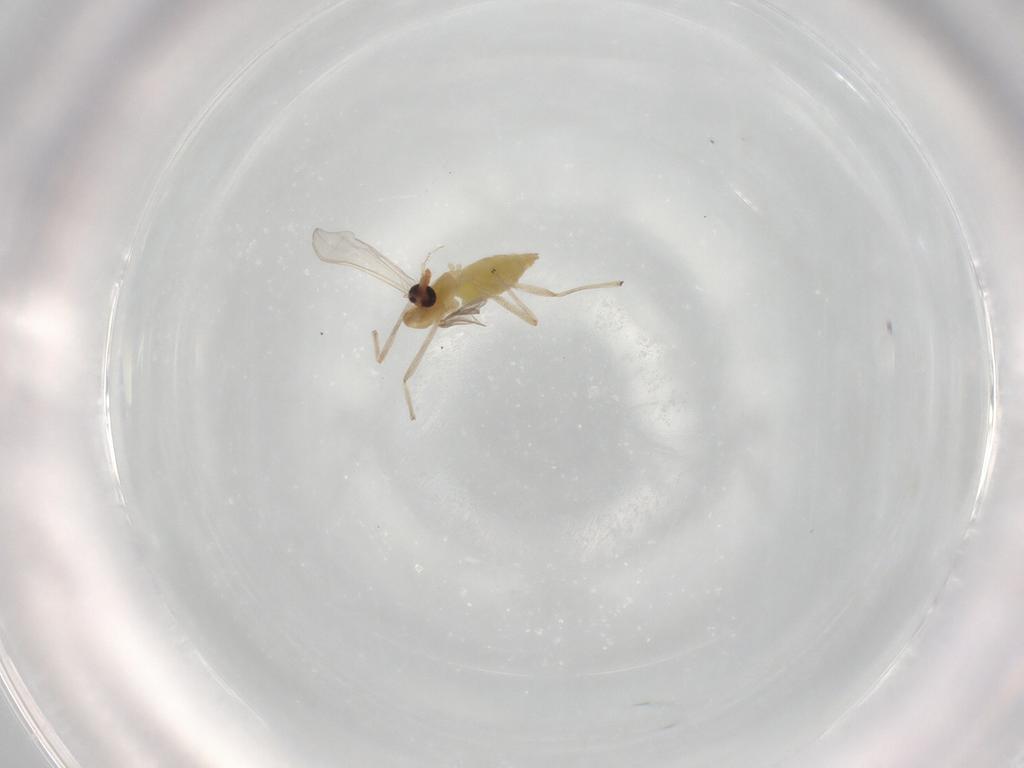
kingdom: Animalia
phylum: Arthropoda
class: Insecta
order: Diptera
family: Chironomidae
